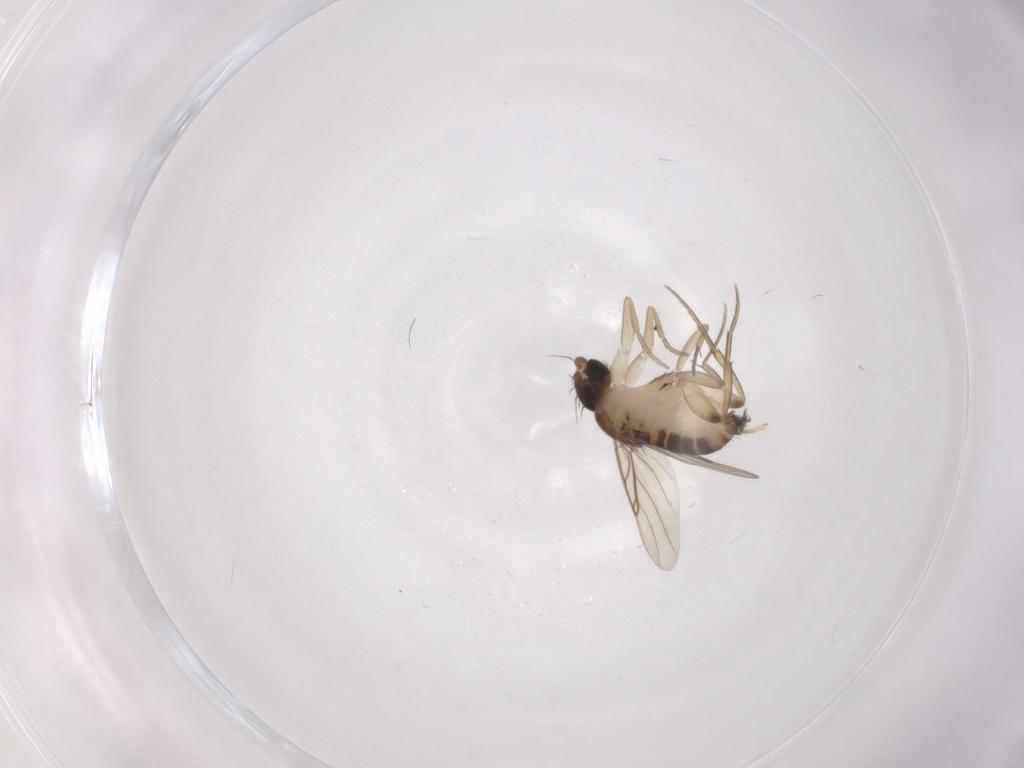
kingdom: Animalia
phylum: Arthropoda
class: Insecta
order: Diptera
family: Phoridae
